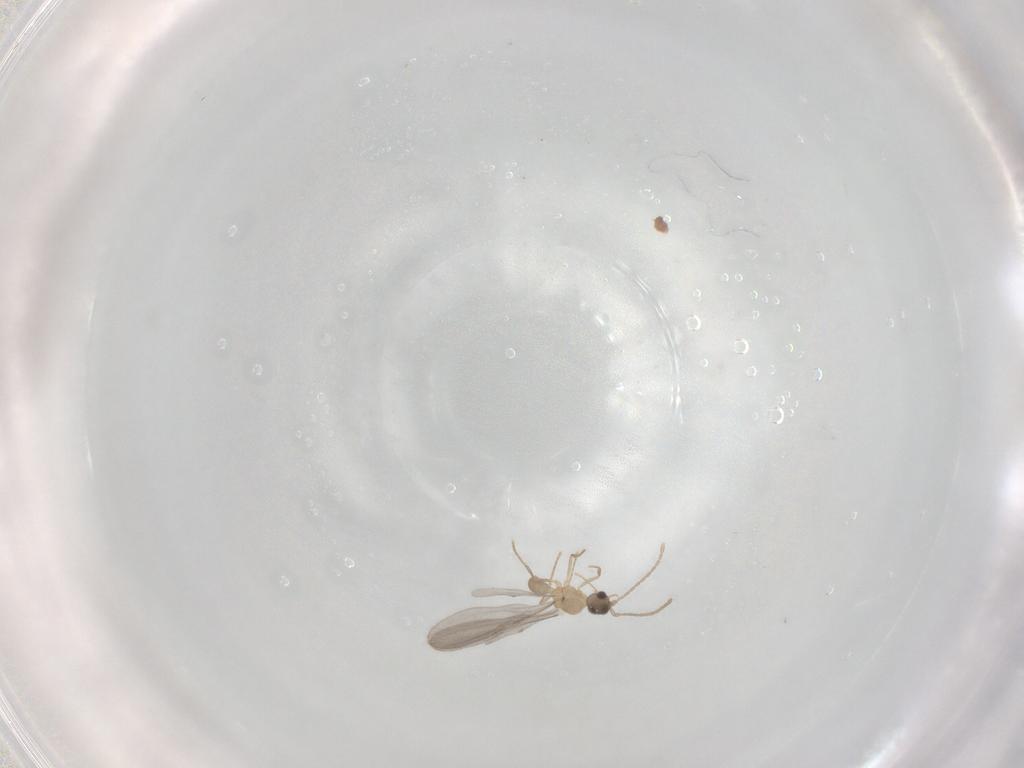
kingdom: Animalia
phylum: Arthropoda
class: Insecta
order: Hymenoptera
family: Formicidae
